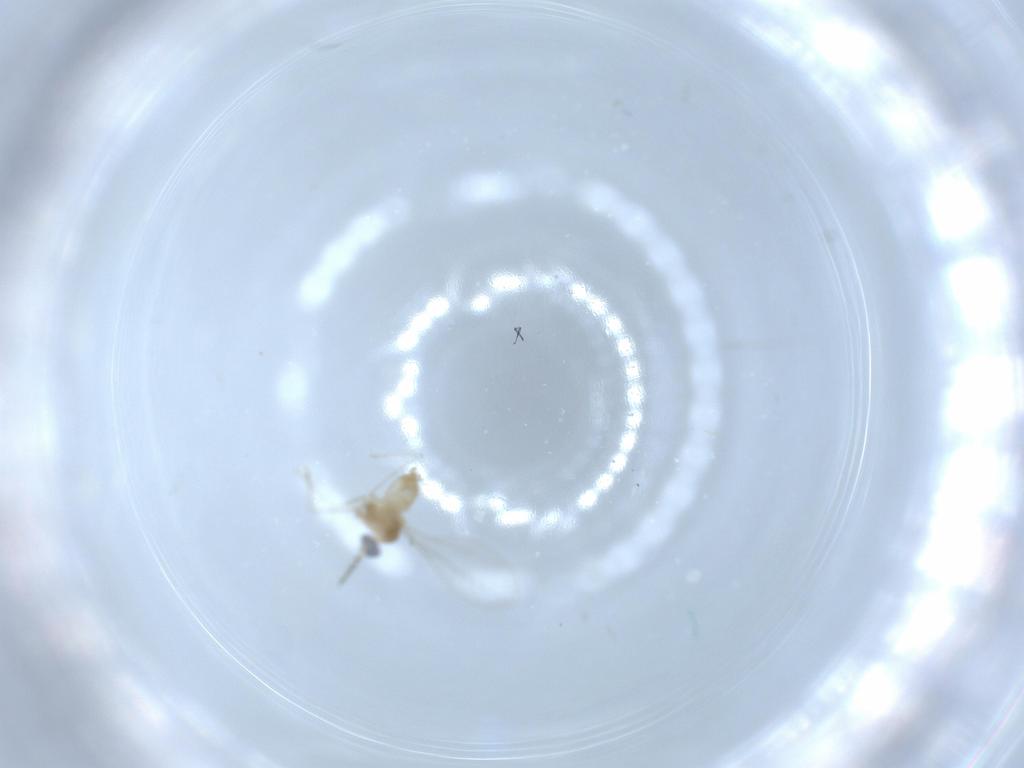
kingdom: Animalia
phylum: Arthropoda
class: Insecta
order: Diptera
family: Cecidomyiidae
